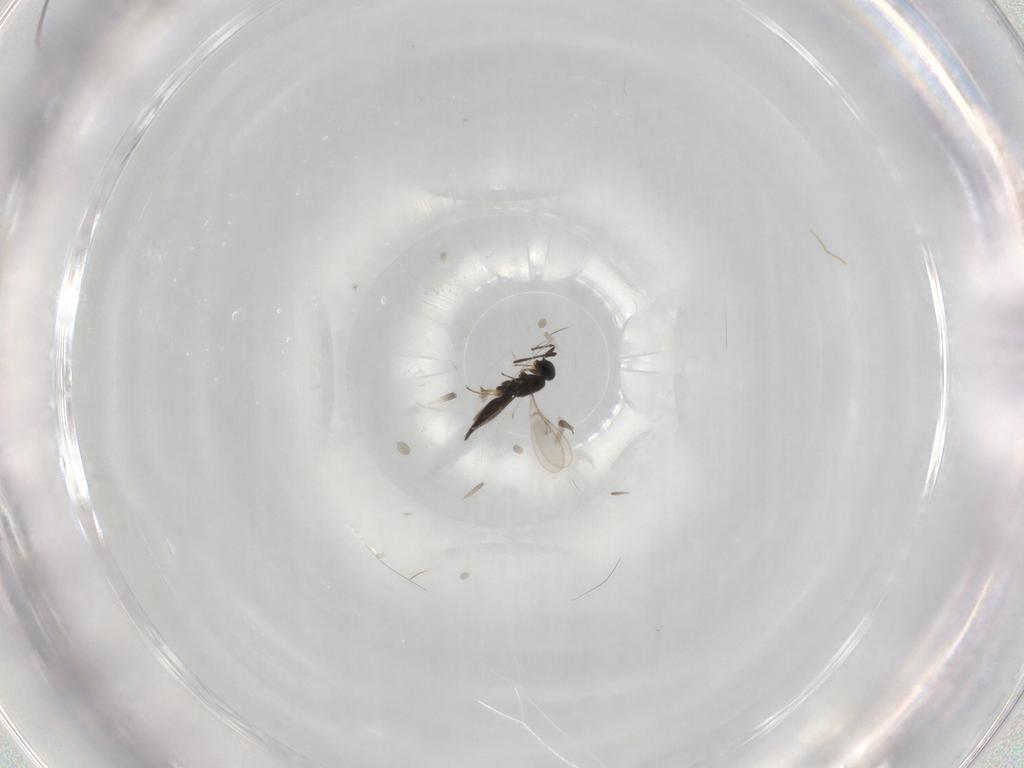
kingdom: Animalia
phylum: Arthropoda
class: Insecta
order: Hymenoptera
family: Scelionidae
